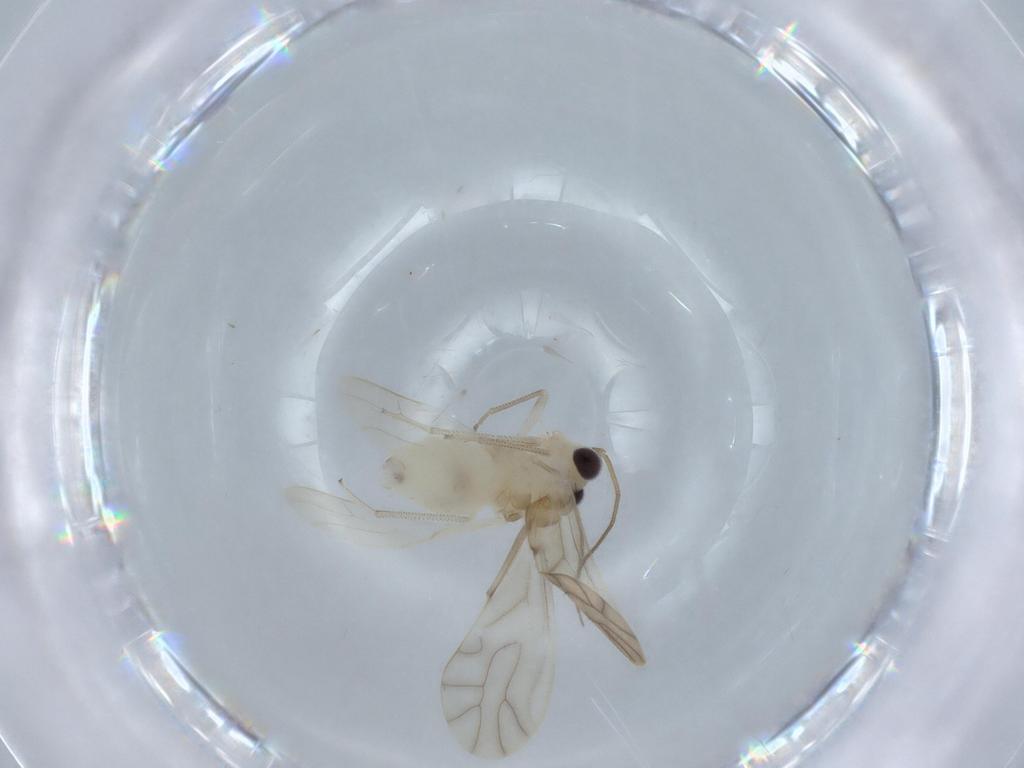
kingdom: Animalia
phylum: Arthropoda
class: Insecta
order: Psocodea
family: Caeciliusidae
